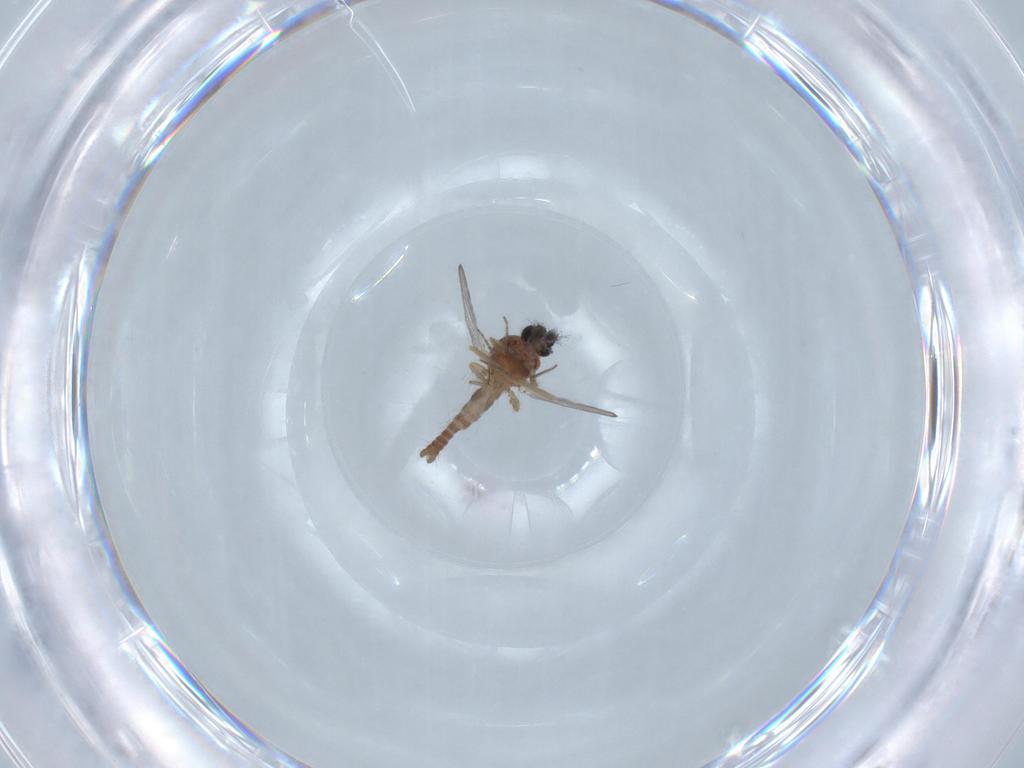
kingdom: Animalia
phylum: Arthropoda
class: Insecta
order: Diptera
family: Ceratopogonidae
